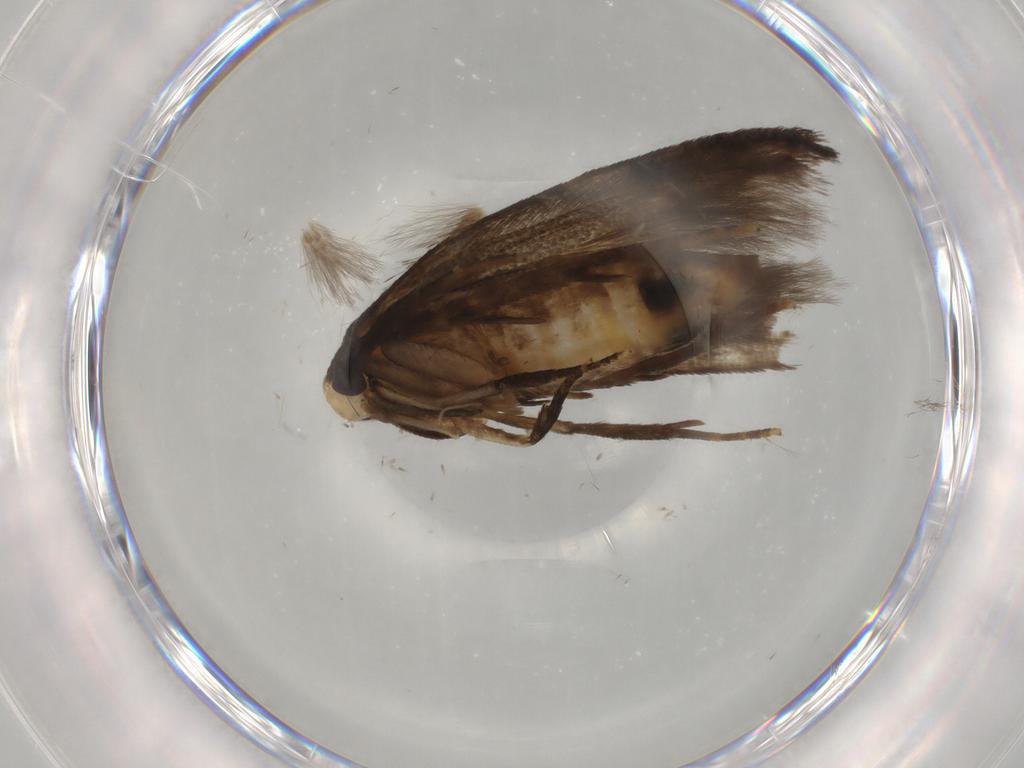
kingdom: Animalia
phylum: Arthropoda
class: Insecta
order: Lepidoptera
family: Gelechiidae
